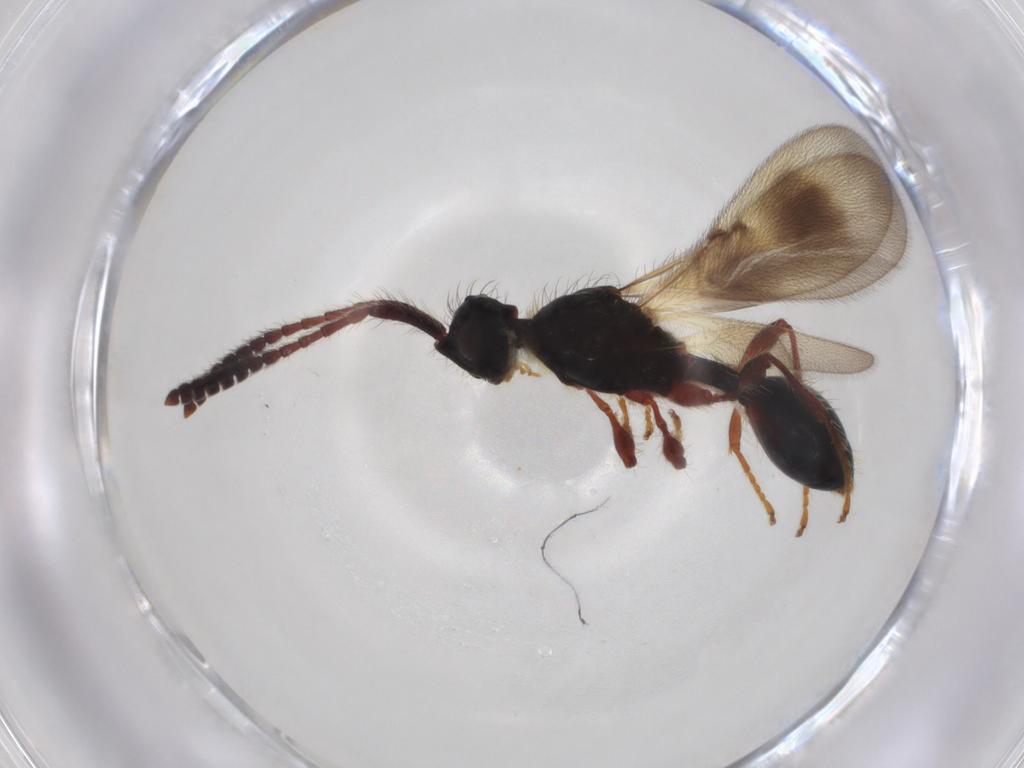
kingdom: Animalia
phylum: Arthropoda
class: Insecta
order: Hymenoptera
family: Diapriidae
